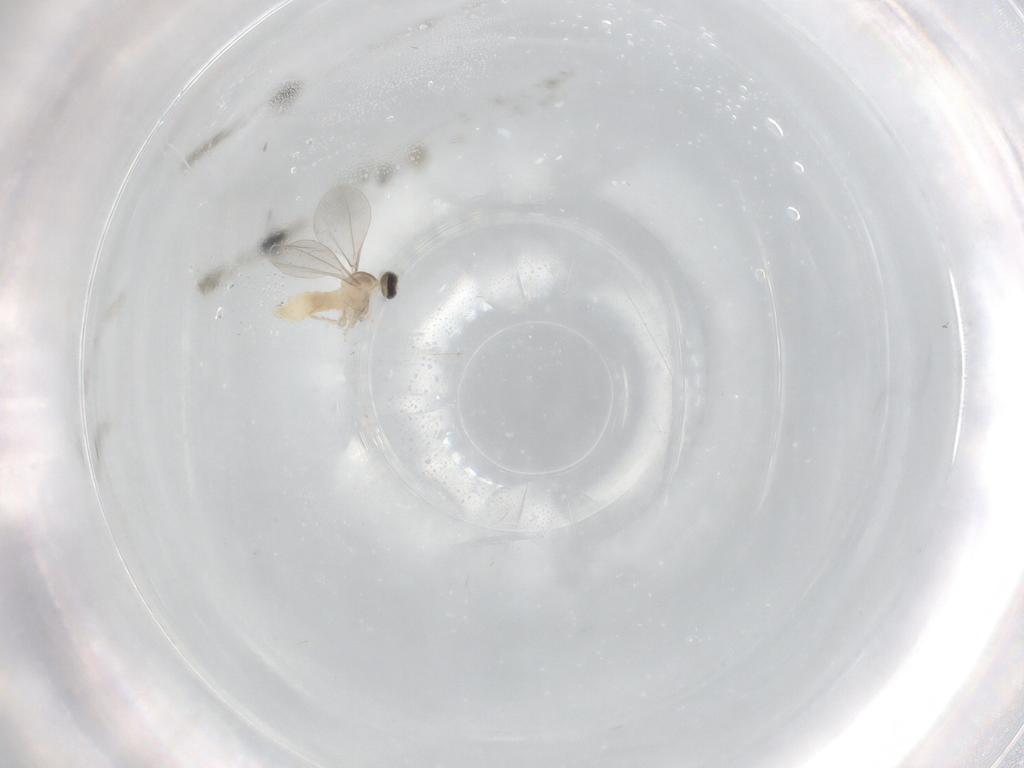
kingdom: Animalia
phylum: Arthropoda
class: Insecta
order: Diptera
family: Cecidomyiidae
